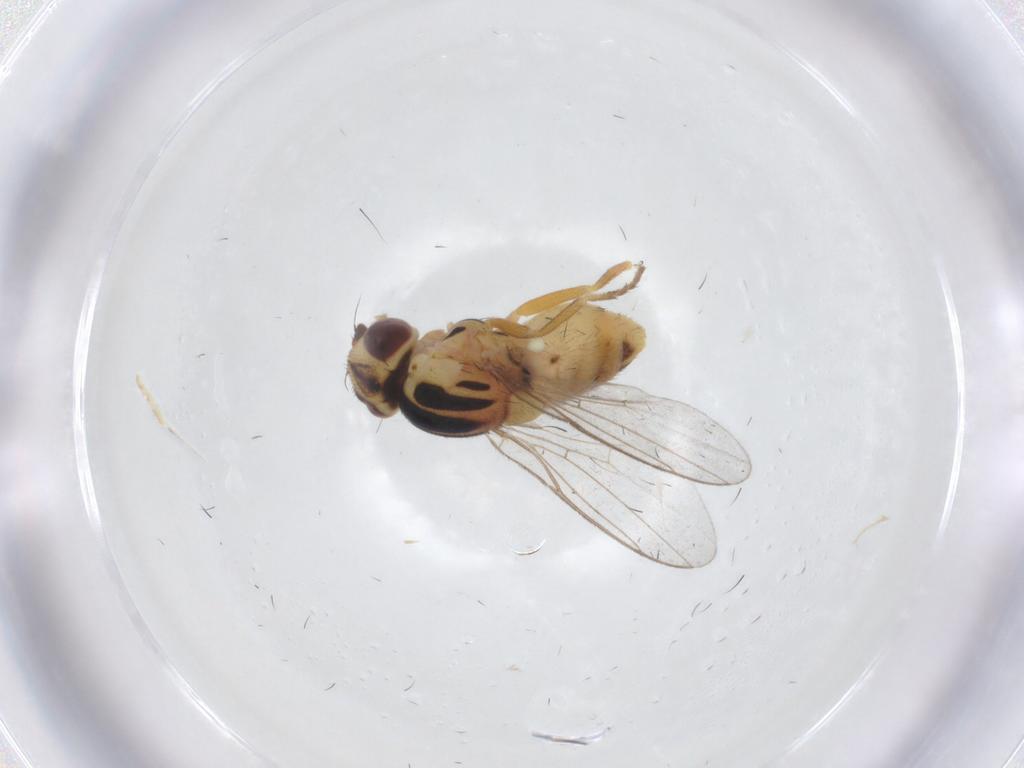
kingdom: Animalia
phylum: Arthropoda
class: Insecta
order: Diptera
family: Chloropidae
